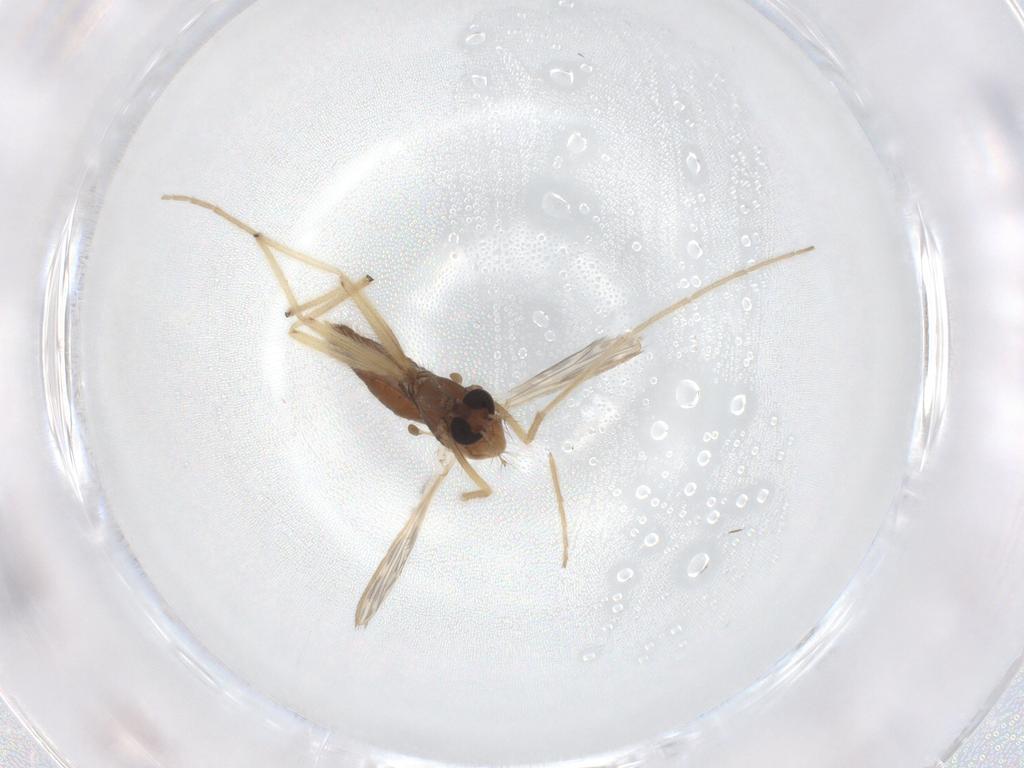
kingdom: Animalia
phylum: Arthropoda
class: Insecta
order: Diptera
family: Chironomidae
